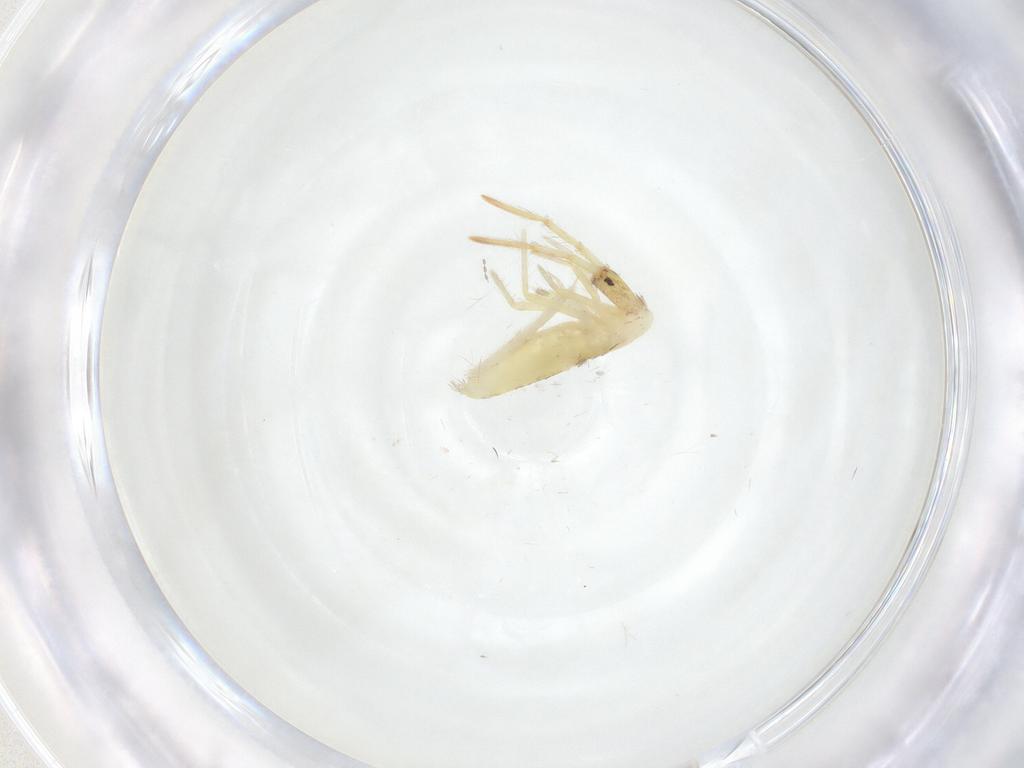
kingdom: Animalia
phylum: Arthropoda
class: Collembola
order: Entomobryomorpha
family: Entomobryidae
